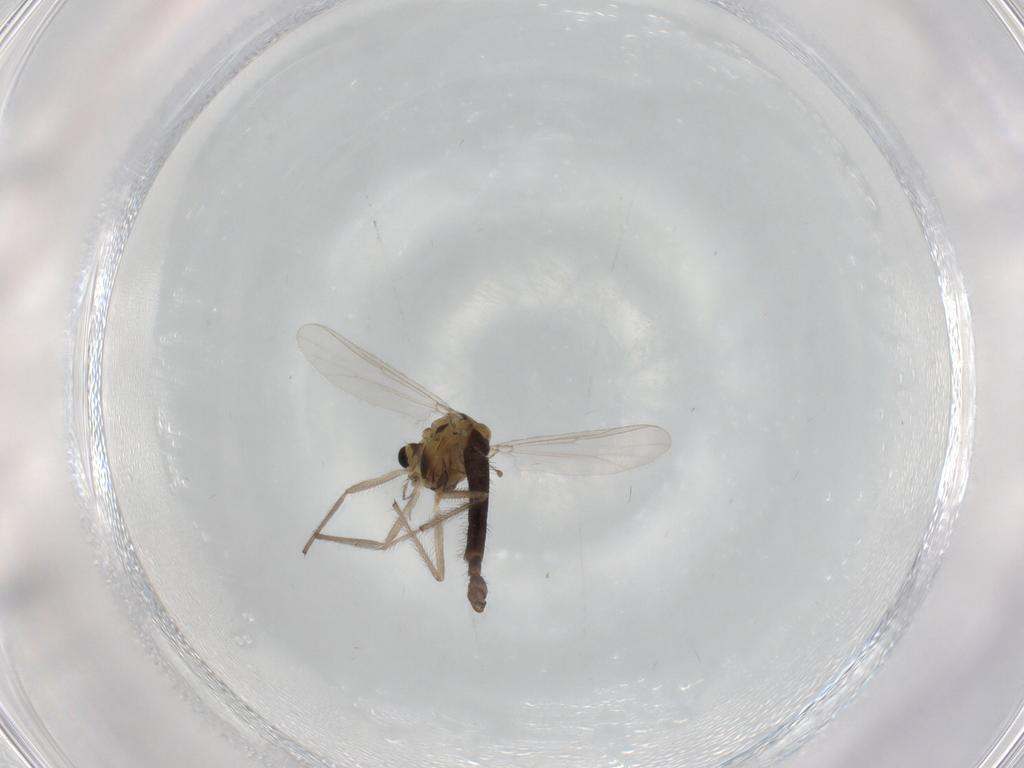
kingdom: Animalia
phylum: Arthropoda
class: Insecta
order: Diptera
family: Chironomidae
